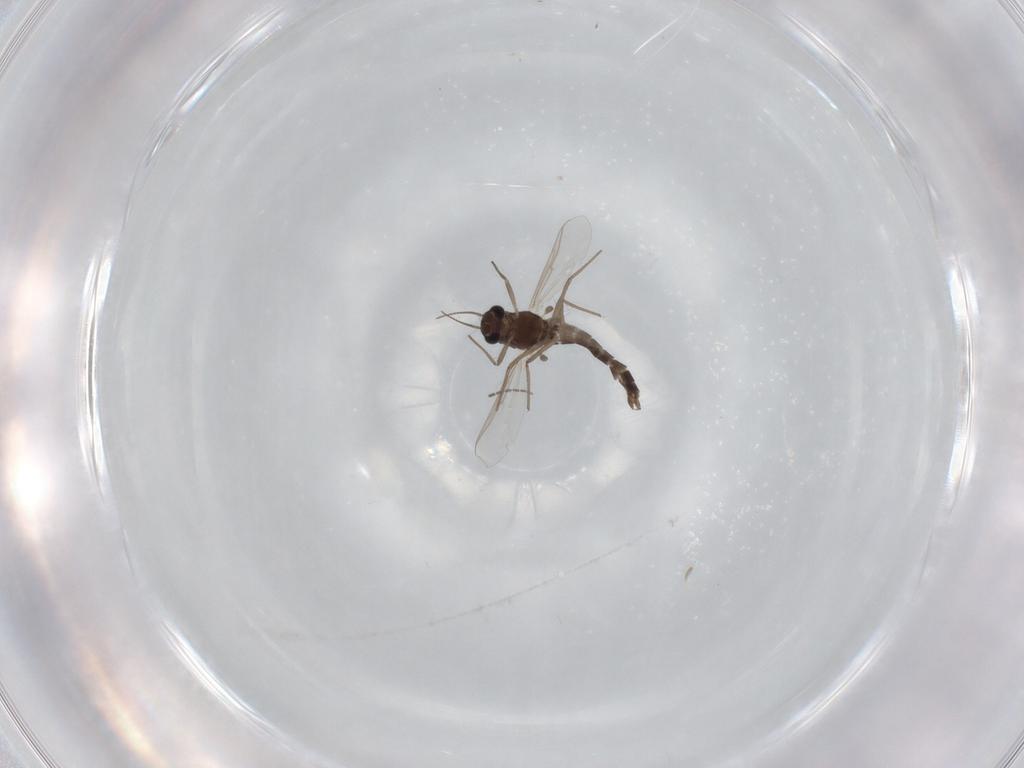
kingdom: Animalia
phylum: Arthropoda
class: Insecta
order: Diptera
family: Chironomidae
